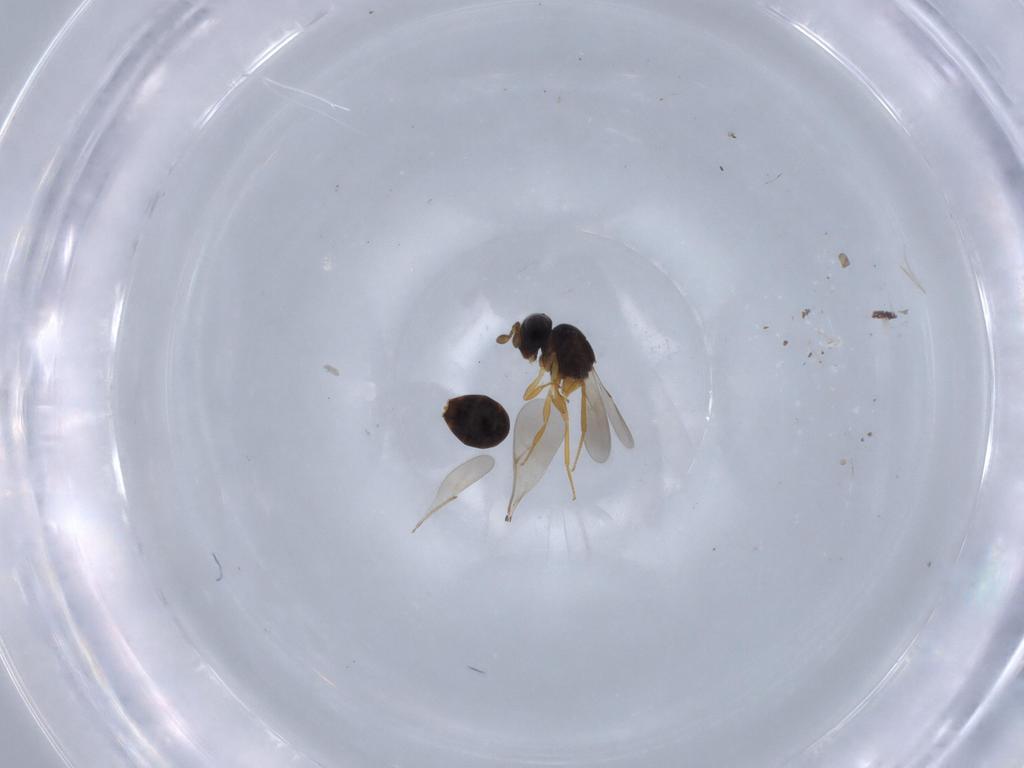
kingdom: Animalia
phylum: Arthropoda
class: Insecta
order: Hymenoptera
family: Scelionidae
